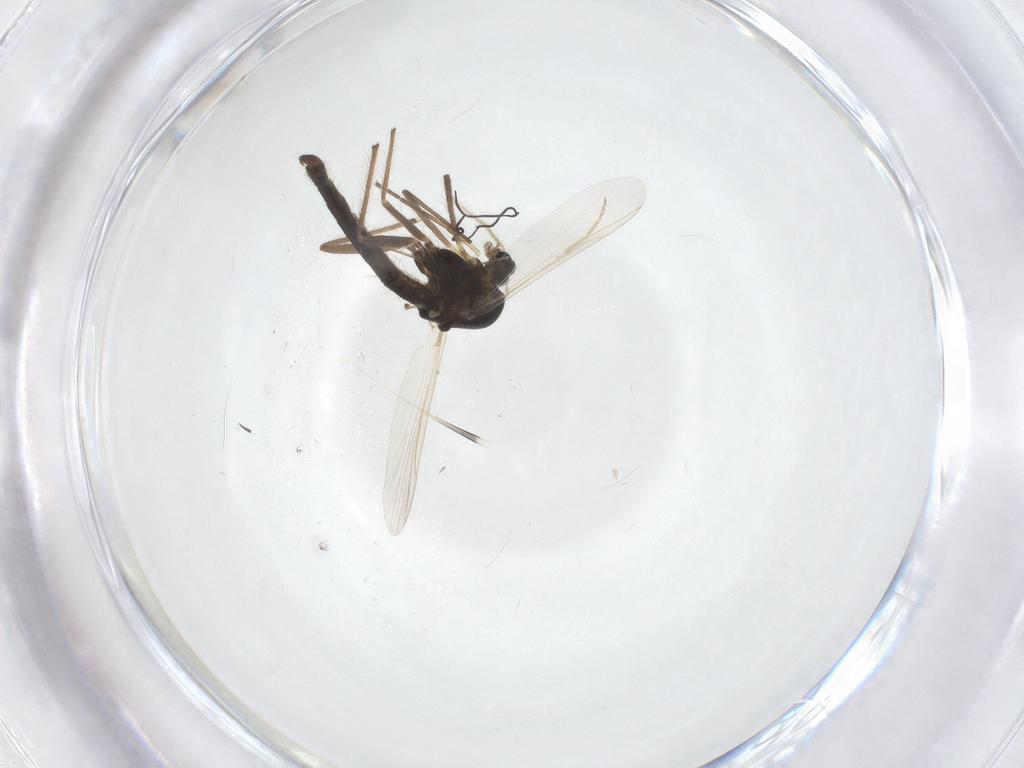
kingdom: Animalia
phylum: Arthropoda
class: Insecta
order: Diptera
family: Chironomidae
